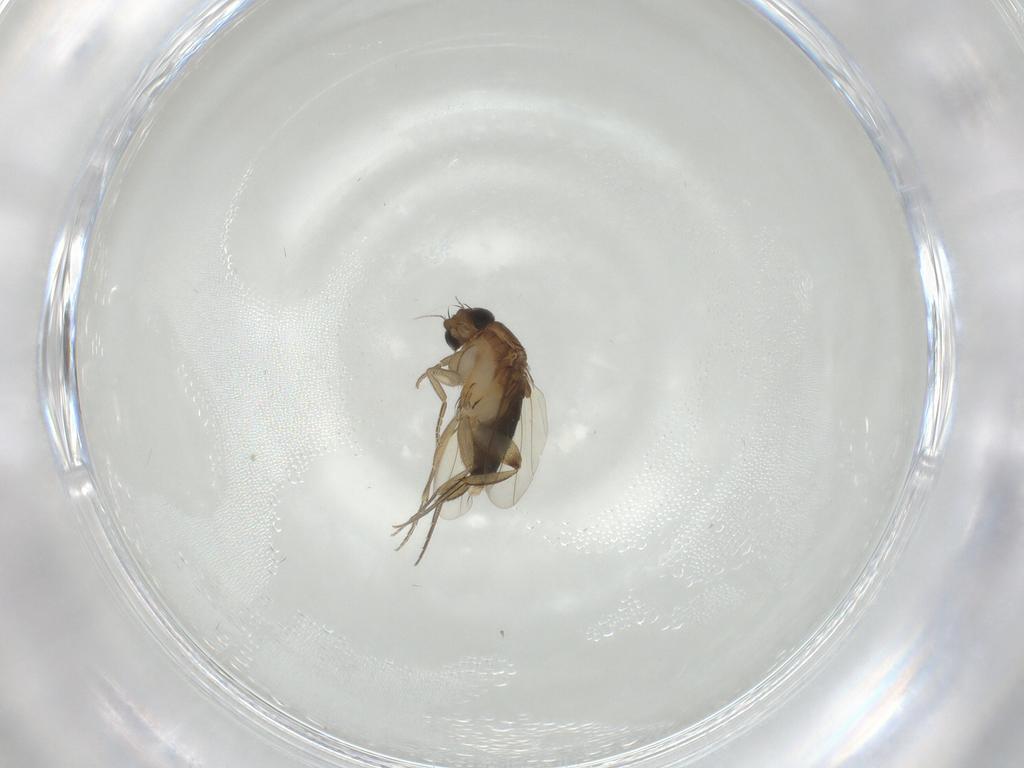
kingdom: Animalia
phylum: Arthropoda
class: Insecta
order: Diptera
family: Phoridae
